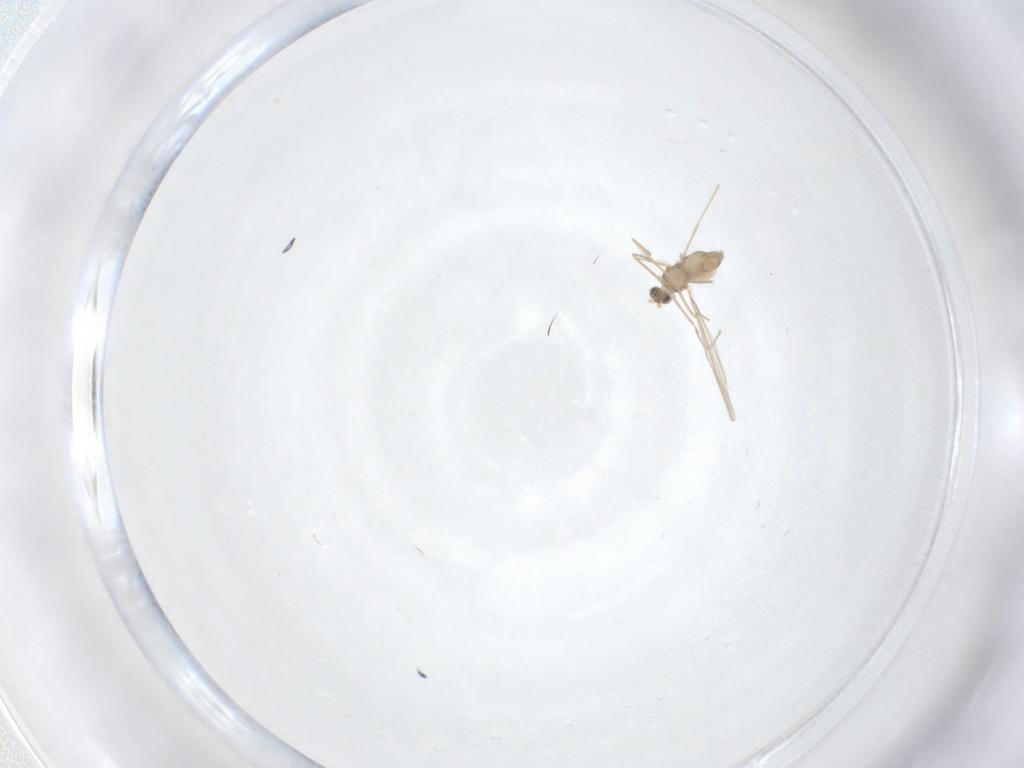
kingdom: Animalia
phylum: Arthropoda
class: Insecta
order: Diptera
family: Cecidomyiidae
